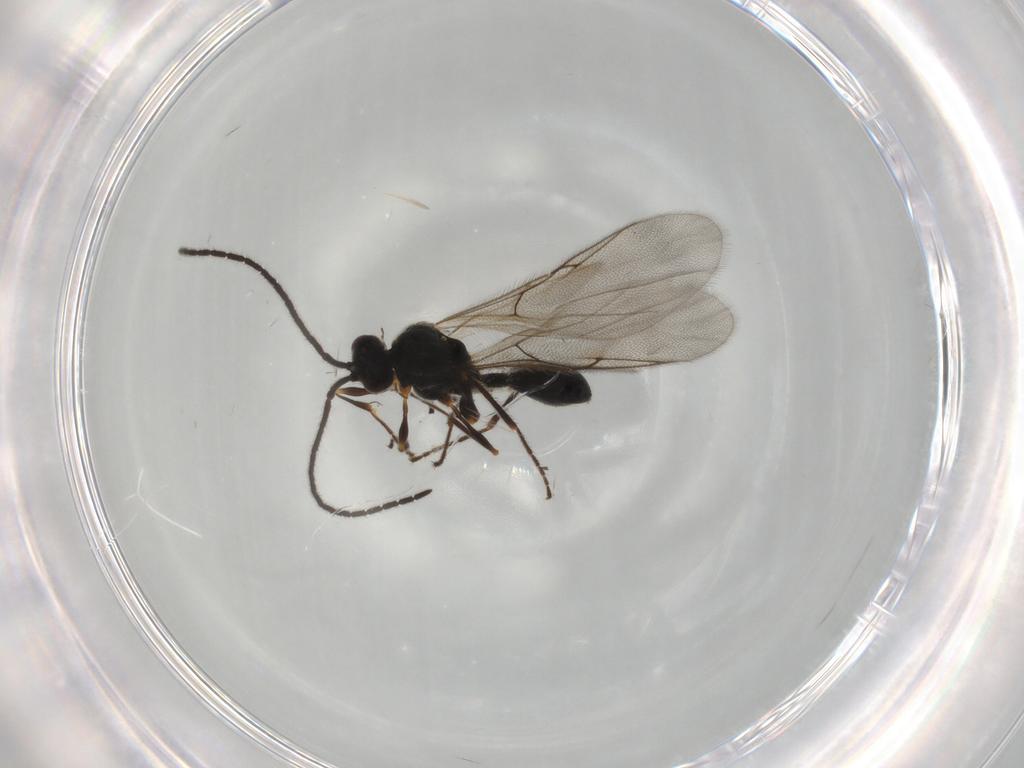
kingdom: Animalia
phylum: Arthropoda
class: Insecta
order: Hymenoptera
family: Diapriidae
